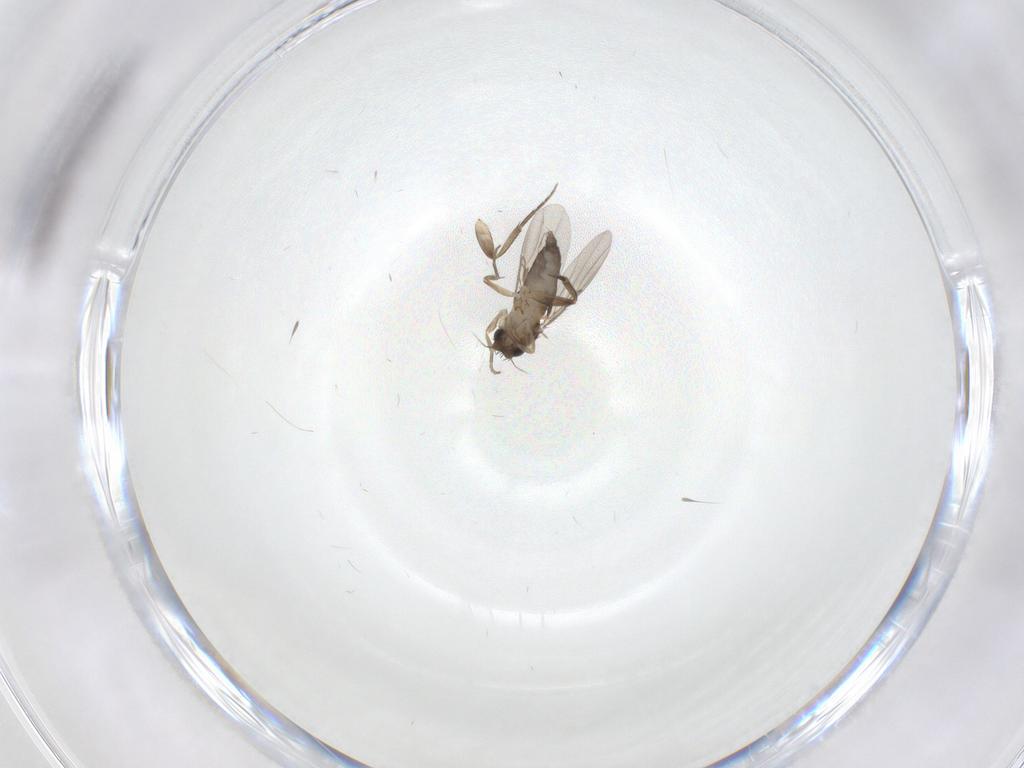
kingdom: Animalia
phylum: Arthropoda
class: Insecta
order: Diptera
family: Phoridae
